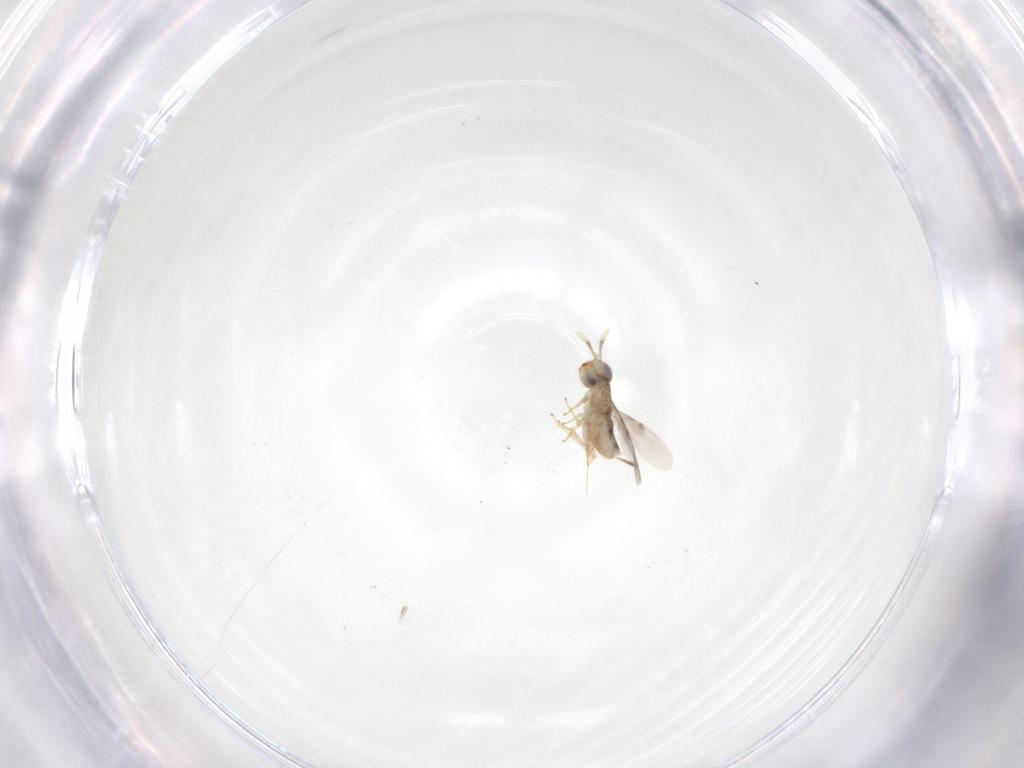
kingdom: Animalia
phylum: Arthropoda
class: Insecta
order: Hymenoptera
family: Encyrtidae
